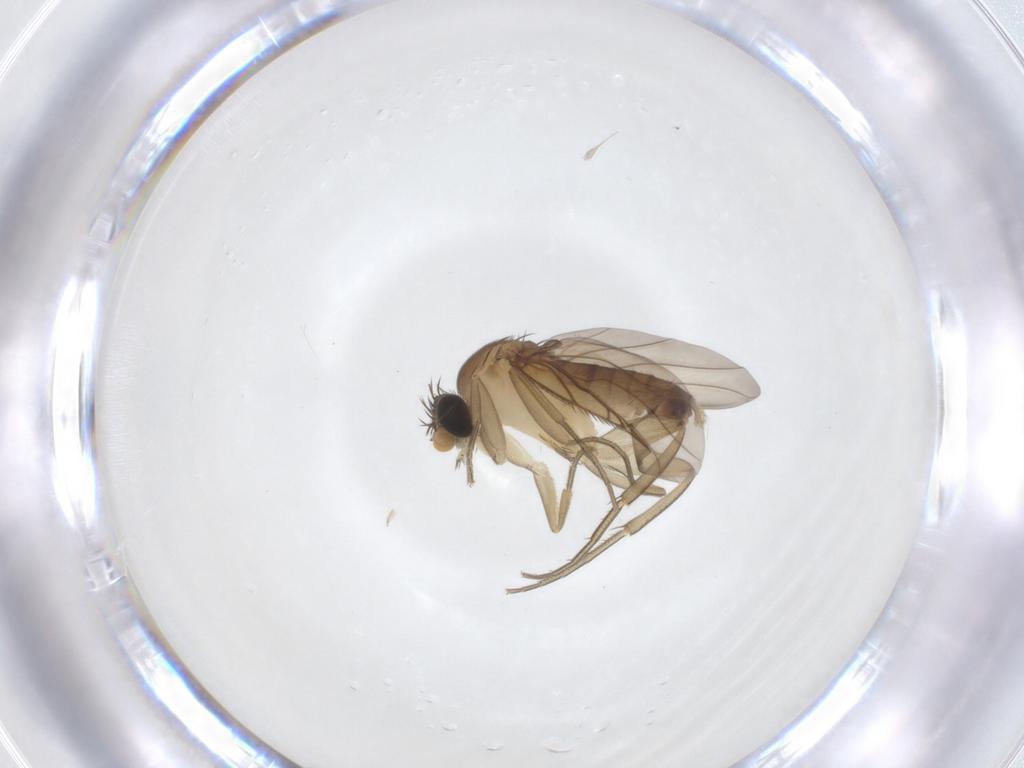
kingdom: Animalia
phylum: Arthropoda
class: Insecta
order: Diptera
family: Phoridae
